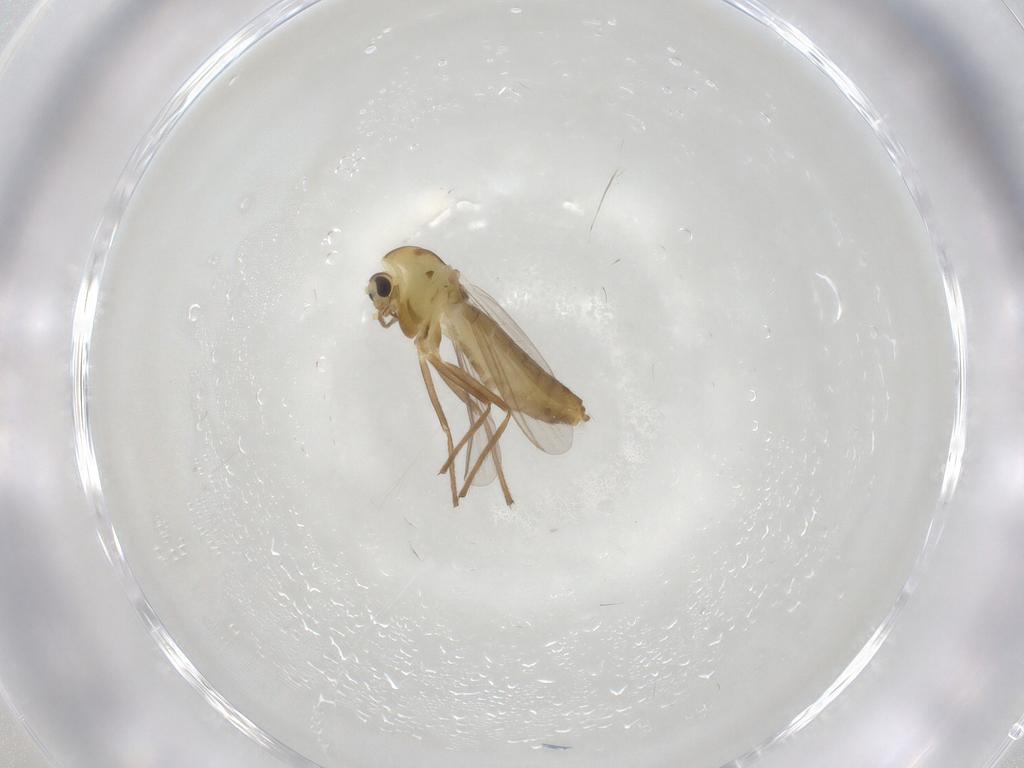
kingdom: Animalia
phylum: Arthropoda
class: Insecta
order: Diptera
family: Chironomidae
